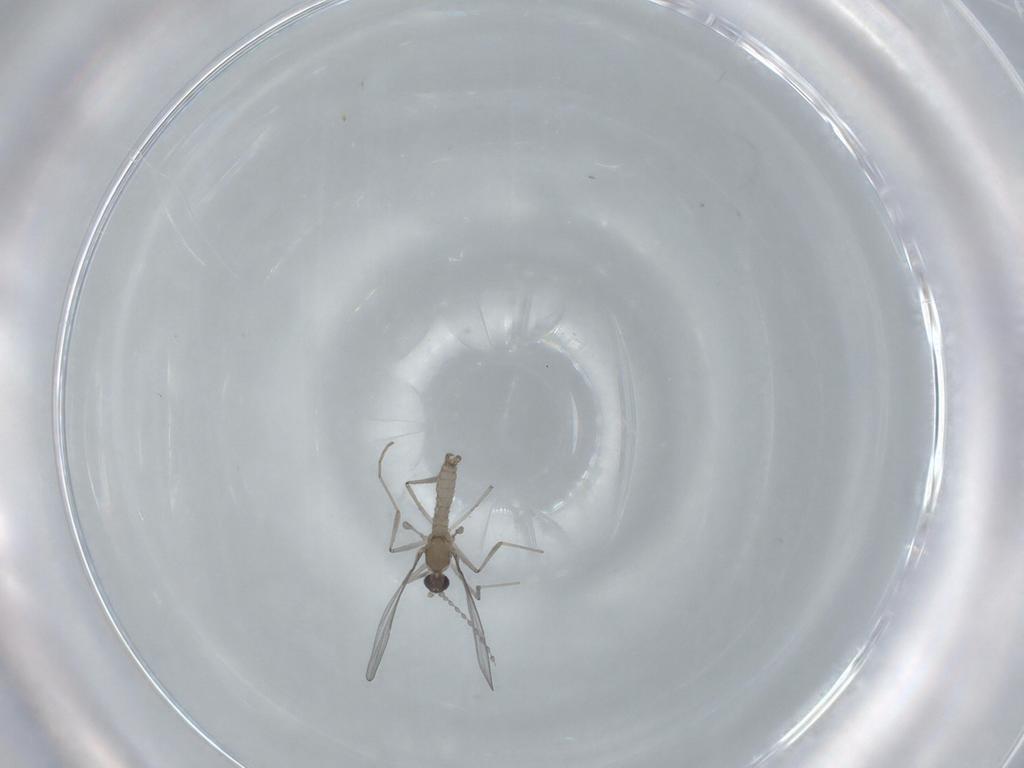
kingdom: Animalia
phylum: Arthropoda
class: Insecta
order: Diptera
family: Cecidomyiidae
